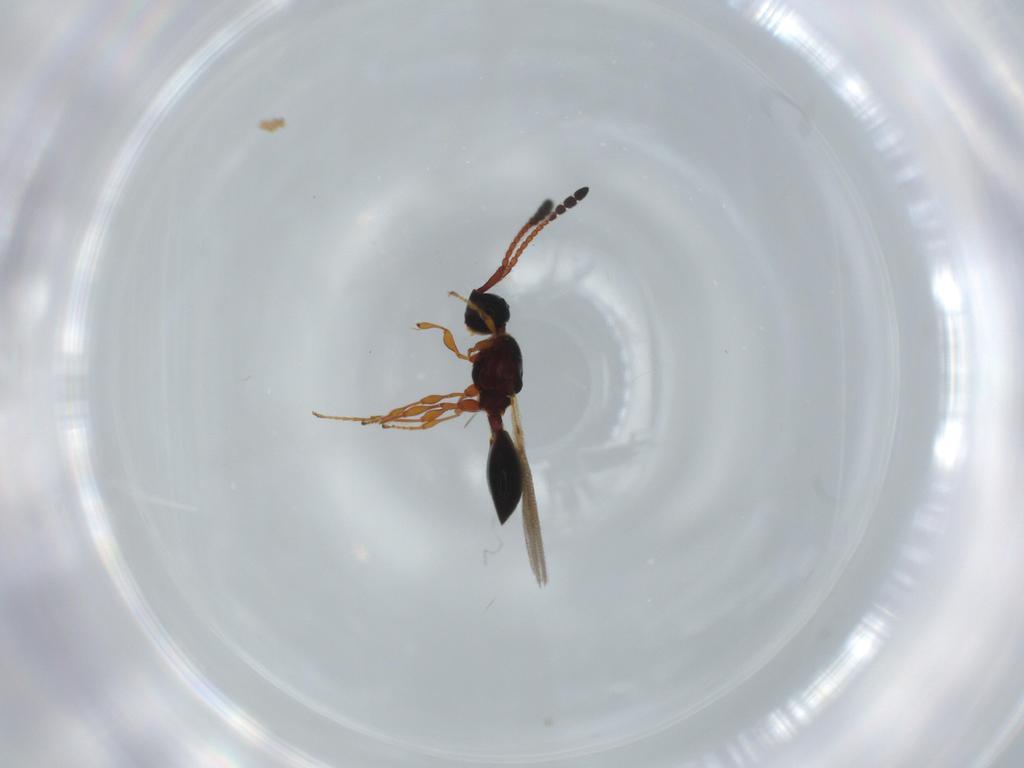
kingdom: Animalia
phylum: Arthropoda
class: Insecta
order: Hymenoptera
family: Diapriidae
